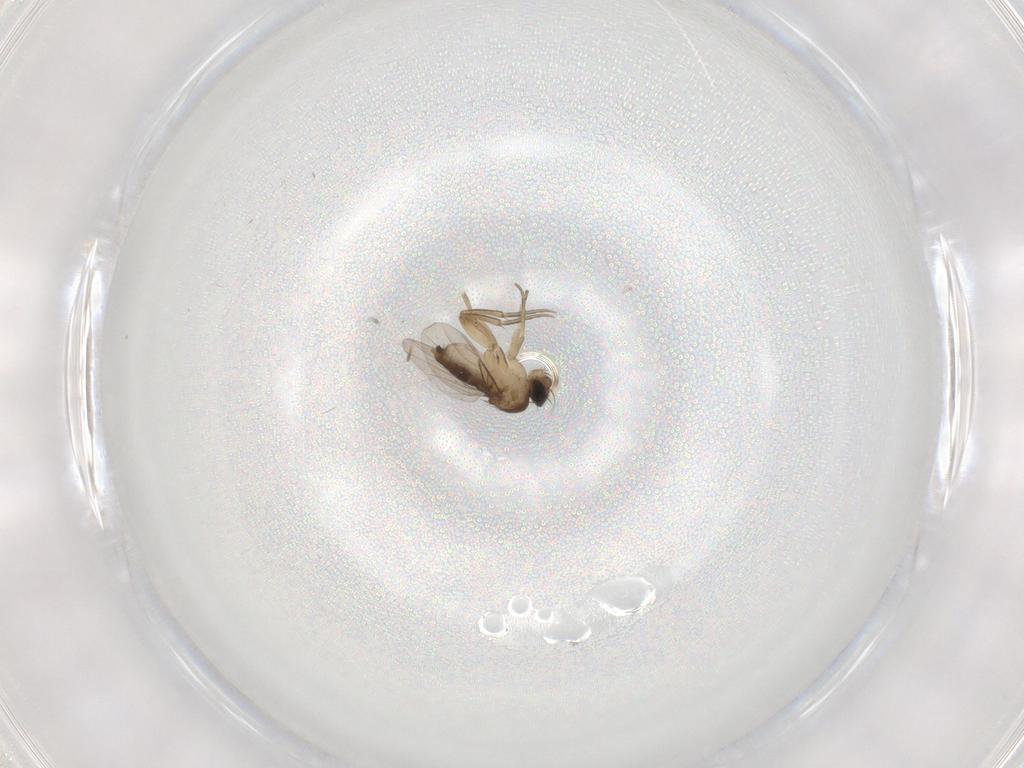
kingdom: Animalia
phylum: Arthropoda
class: Insecta
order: Diptera
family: Phoridae
